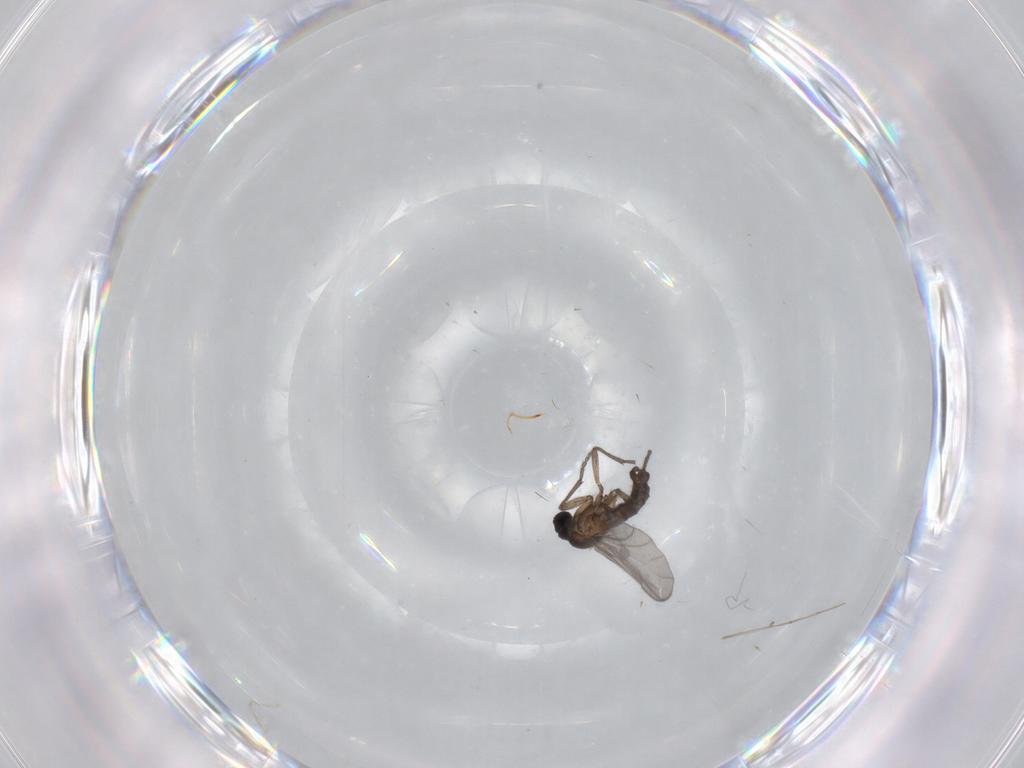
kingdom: Animalia
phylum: Arthropoda
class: Insecta
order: Diptera
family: Sciaridae
